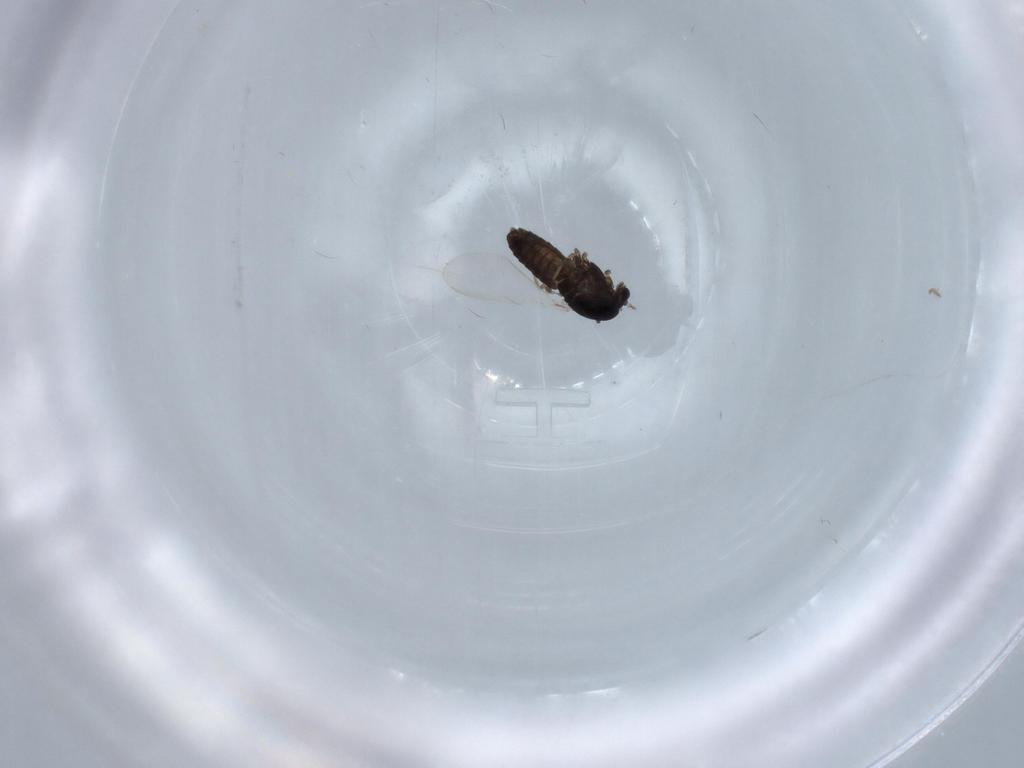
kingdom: Animalia
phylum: Arthropoda
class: Insecta
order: Diptera
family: Chironomidae
